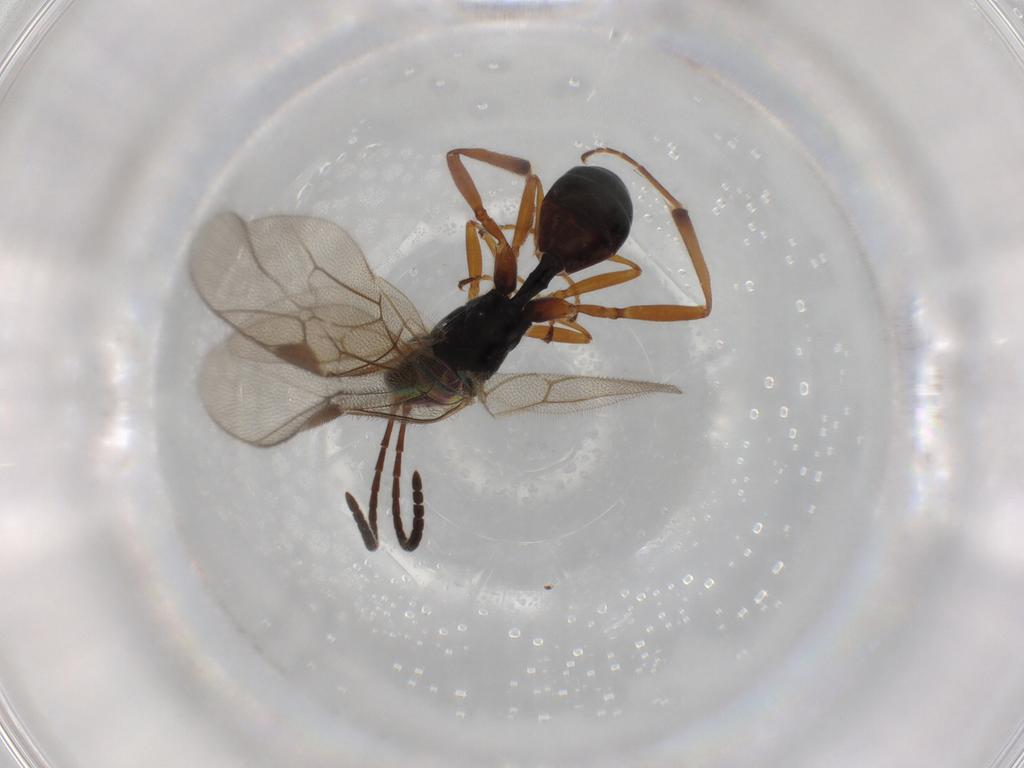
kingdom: Animalia
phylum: Arthropoda
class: Insecta
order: Hymenoptera
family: Ichneumonidae
